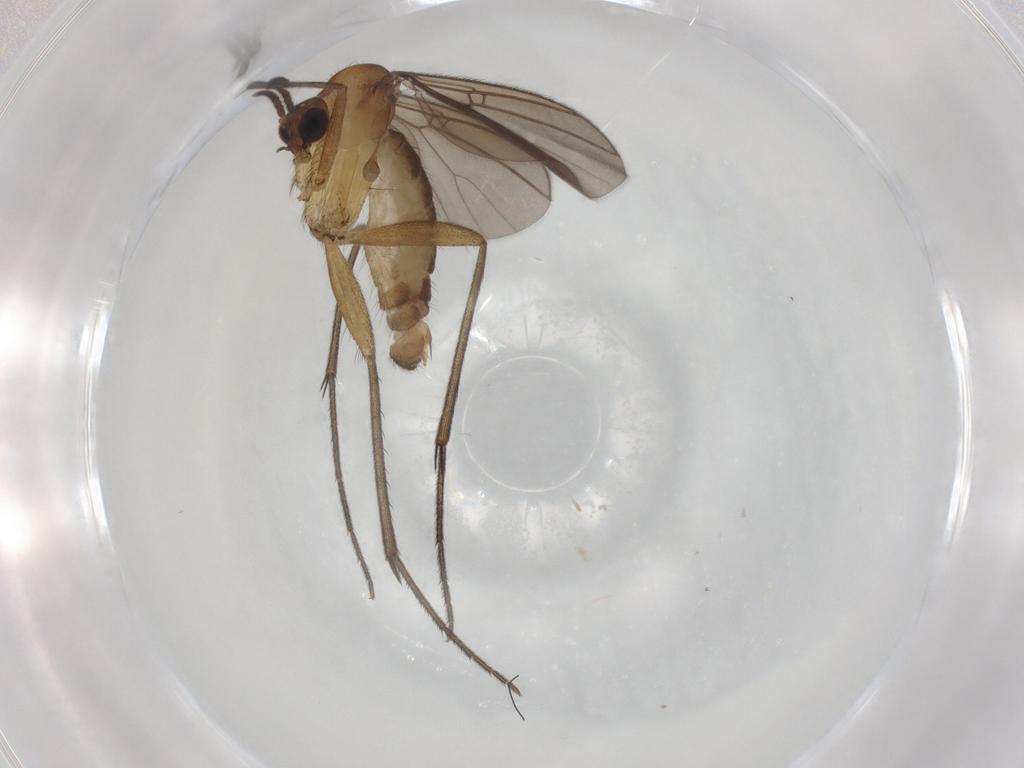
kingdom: Animalia
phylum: Arthropoda
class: Insecta
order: Diptera
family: Mycetophilidae
